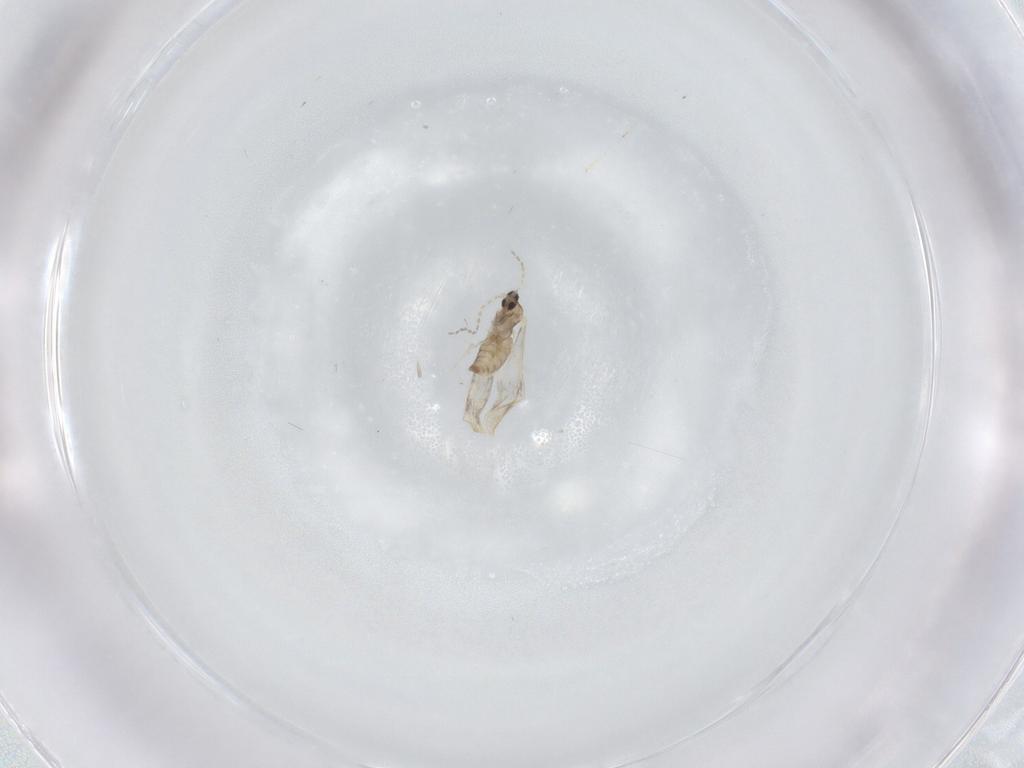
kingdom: Animalia
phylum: Arthropoda
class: Insecta
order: Diptera
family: Cecidomyiidae
